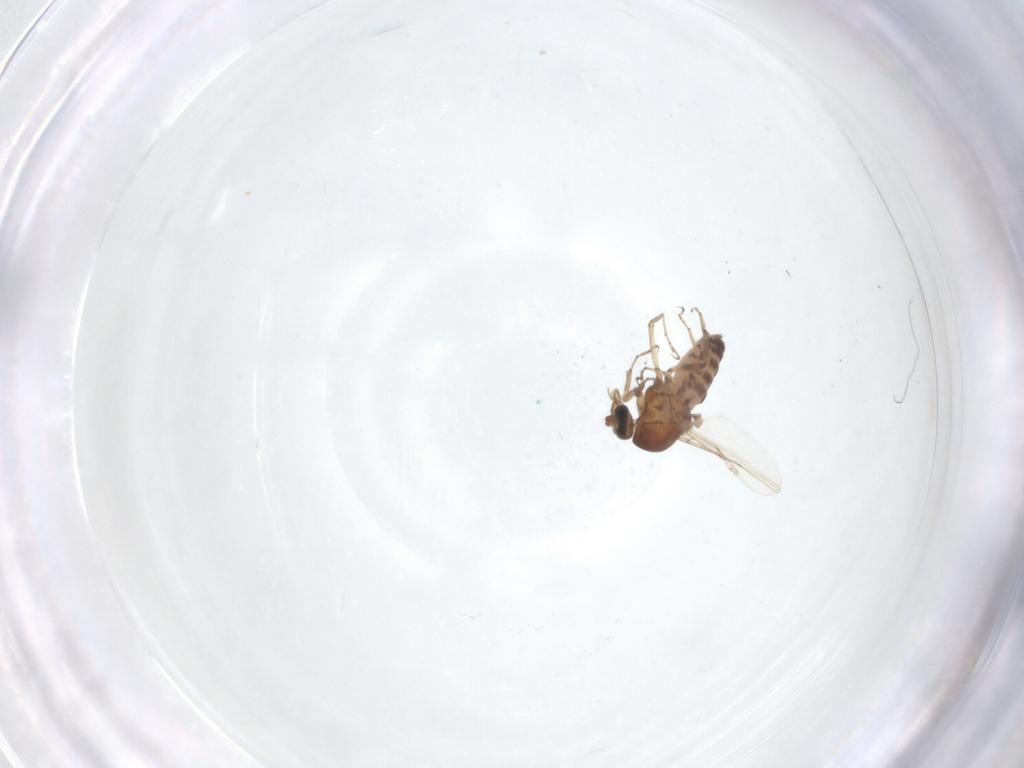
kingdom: Animalia
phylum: Arthropoda
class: Insecta
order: Diptera
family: Ceratopogonidae
